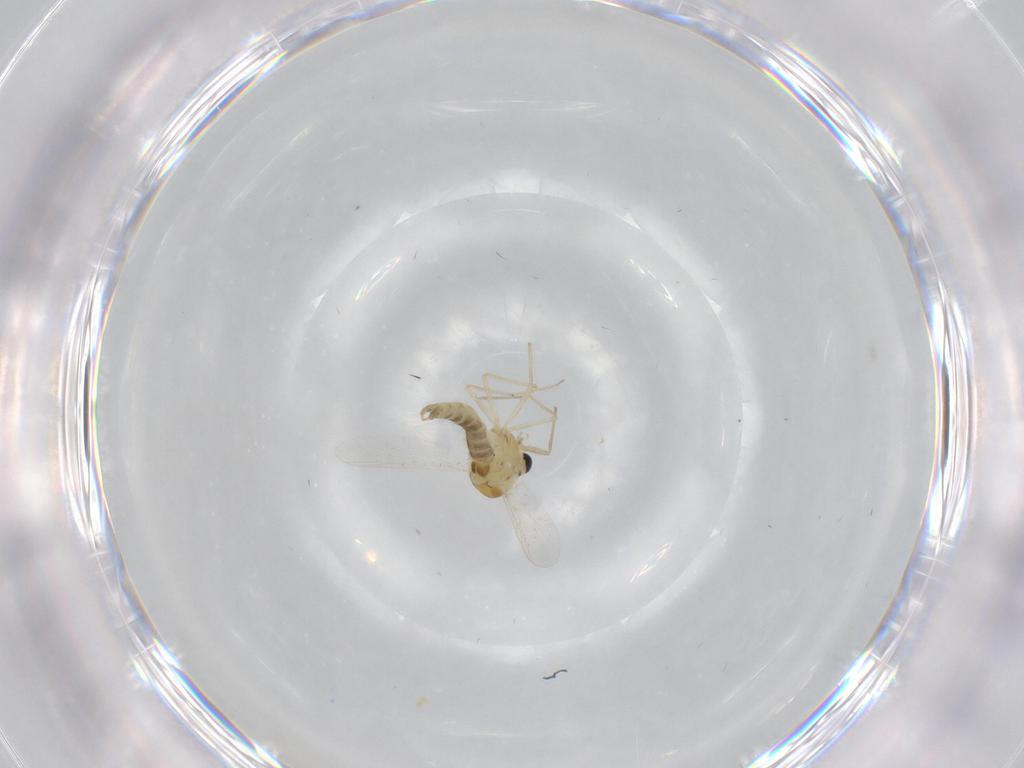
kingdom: Animalia
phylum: Arthropoda
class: Insecta
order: Diptera
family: Chironomidae
